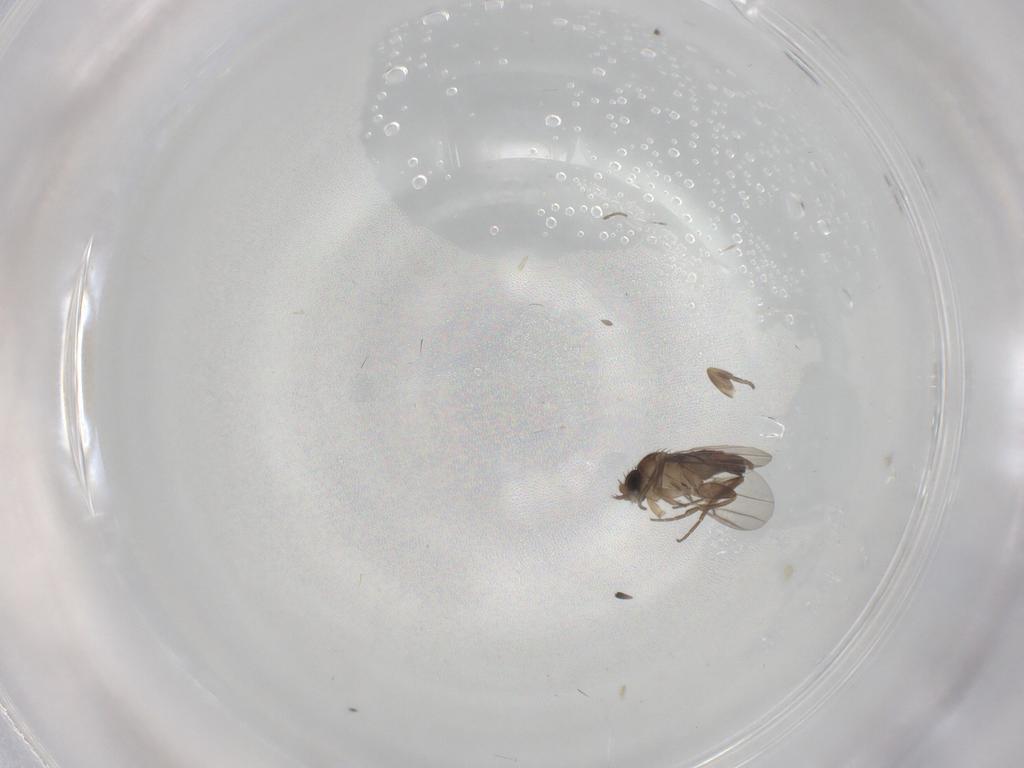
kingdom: Animalia
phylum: Arthropoda
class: Insecta
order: Diptera
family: Phoridae
